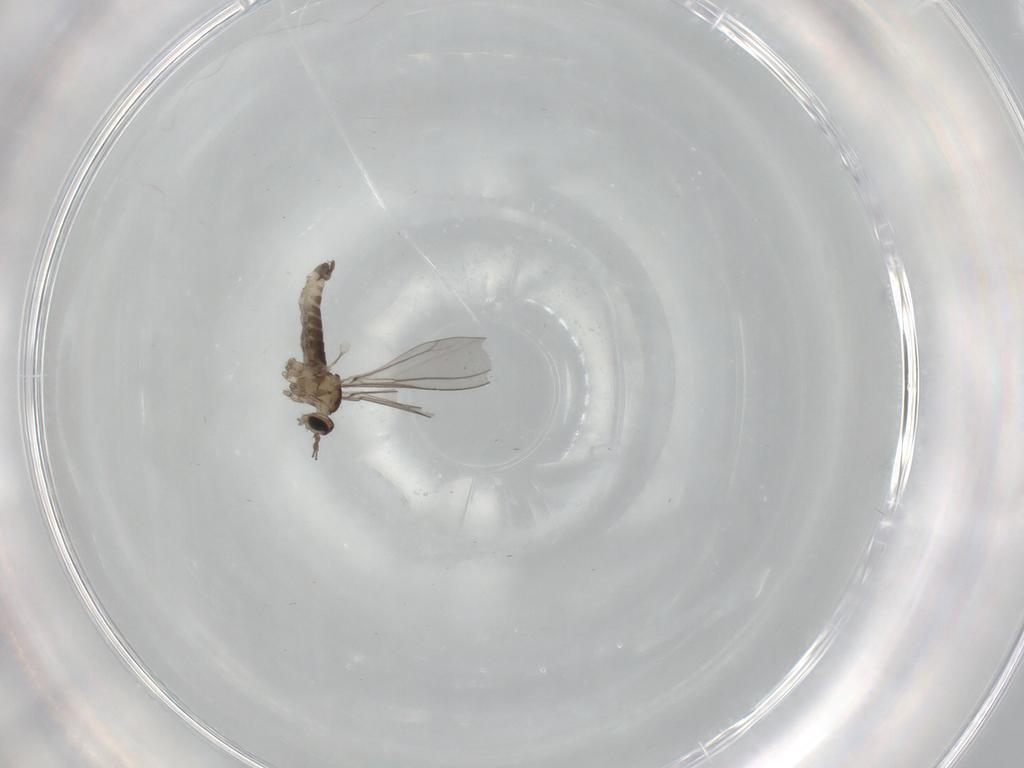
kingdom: Animalia
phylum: Arthropoda
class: Insecta
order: Diptera
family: Cecidomyiidae
